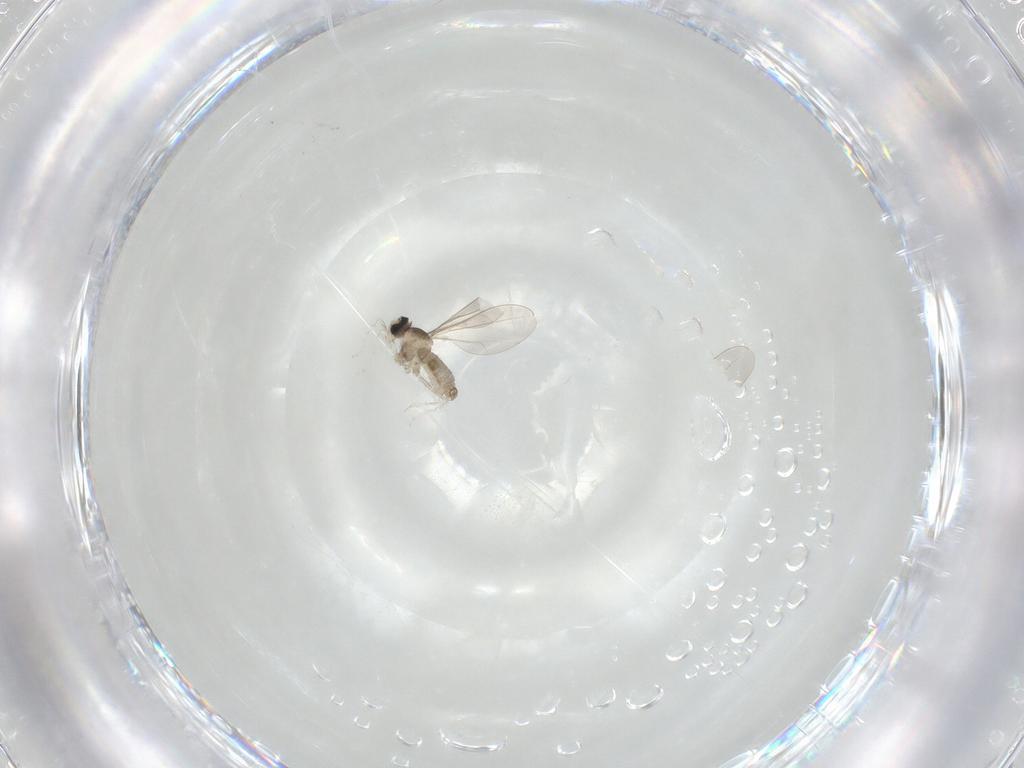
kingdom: Animalia
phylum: Arthropoda
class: Insecta
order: Diptera
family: Cecidomyiidae
